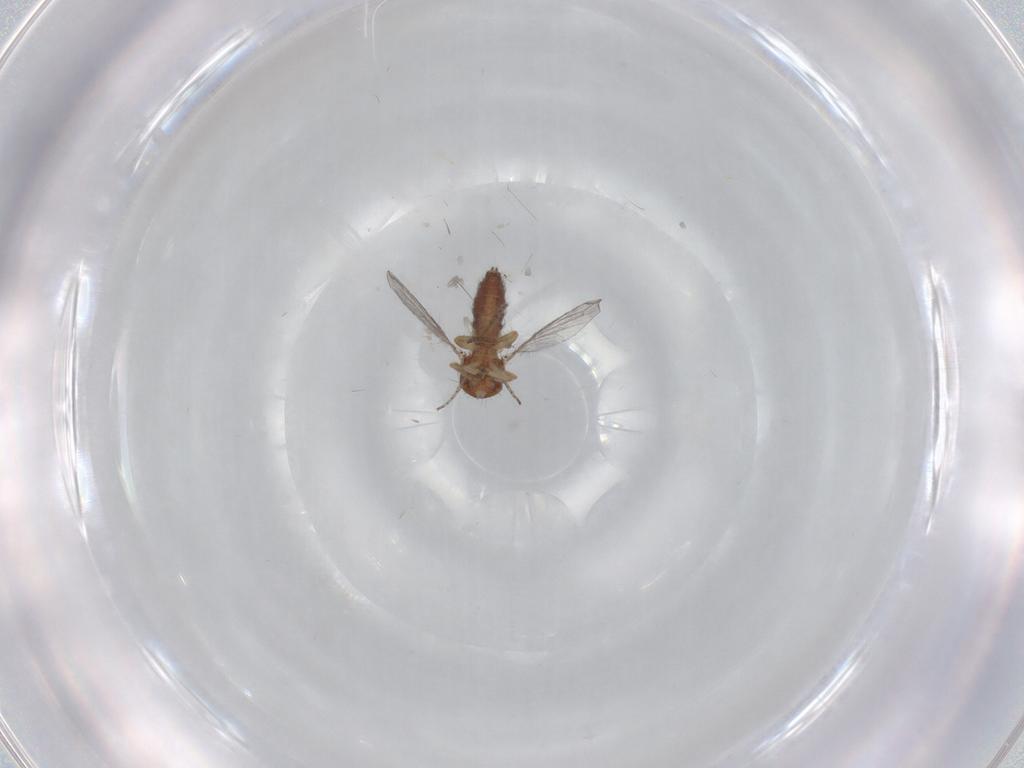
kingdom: Animalia
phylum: Arthropoda
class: Insecta
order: Diptera
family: Ceratopogonidae
